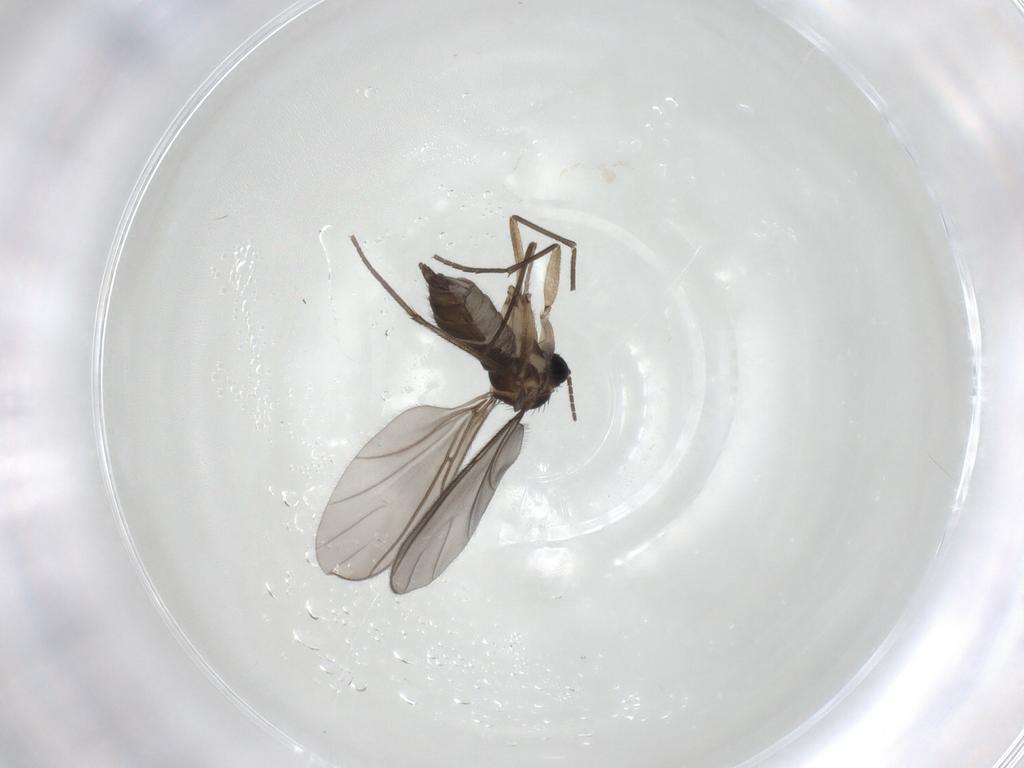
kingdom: Animalia
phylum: Arthropoda
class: Insecta
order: Diptera
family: Sciaridae
